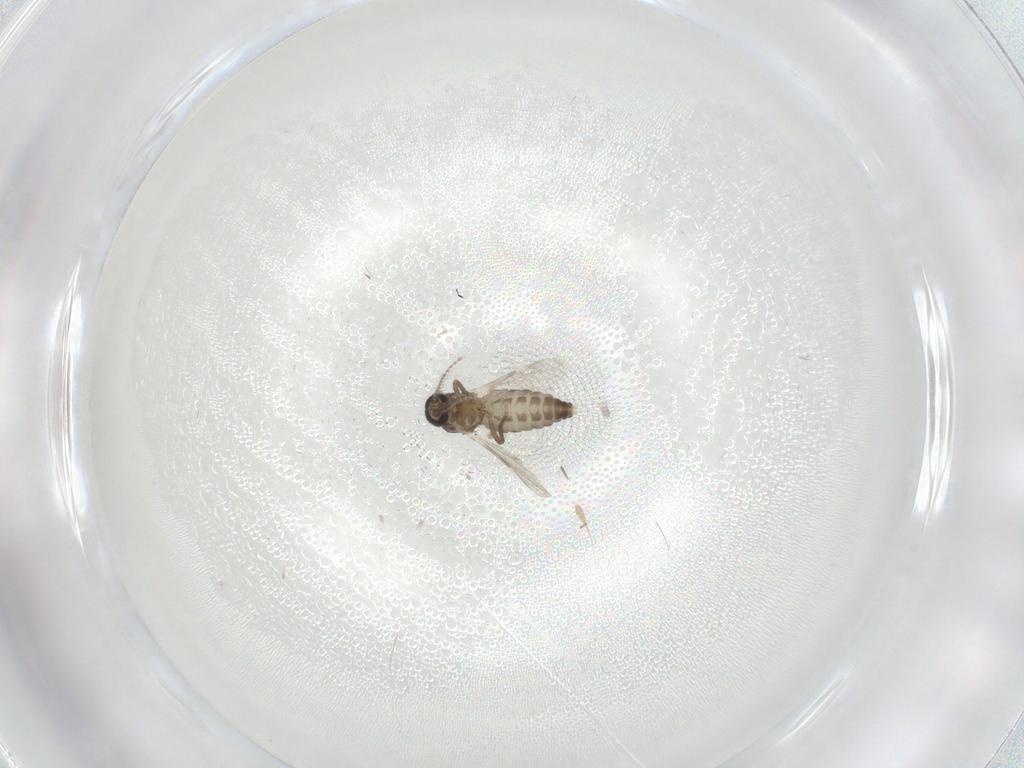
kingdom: Animalia
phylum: Arthropoda
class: Insecta
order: Diptera
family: Ceratopogonidae
